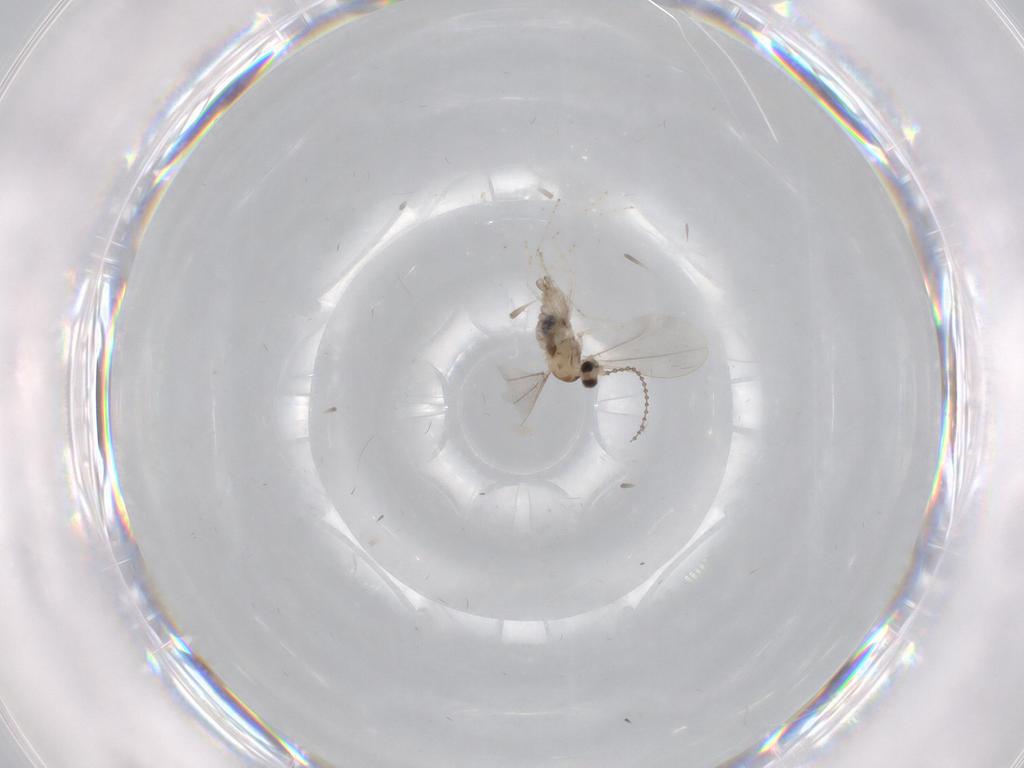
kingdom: Animalia
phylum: Arthropoda
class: Insecta
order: Diptera
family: Cecidomyiidae
